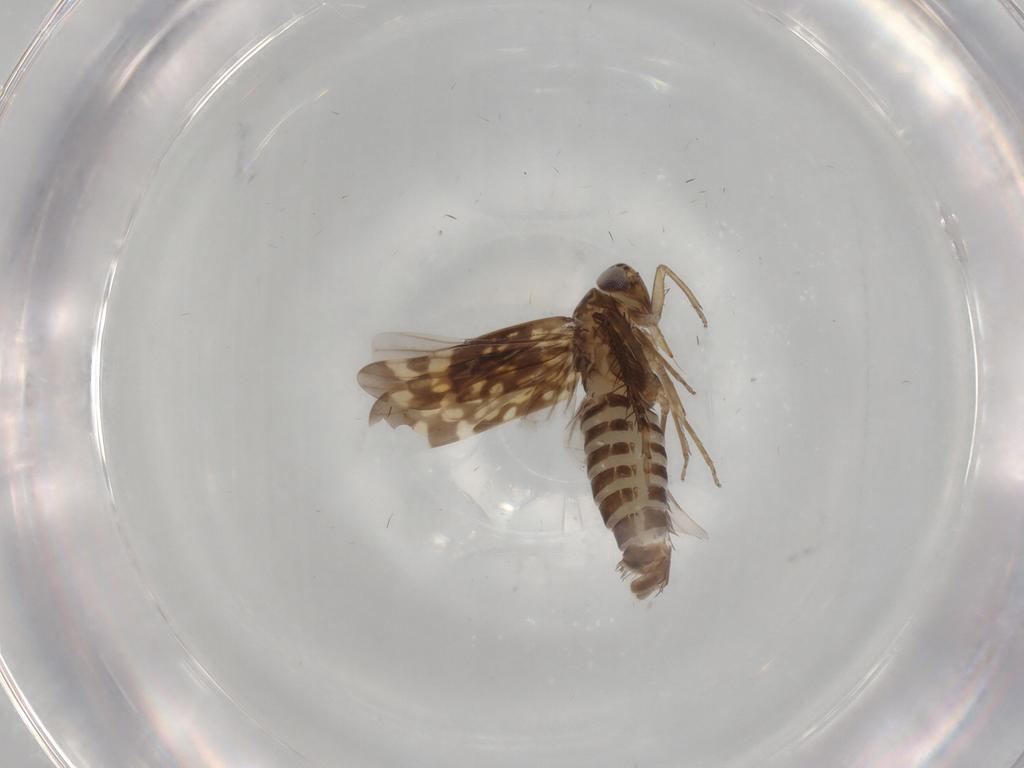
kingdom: Animalia
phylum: Arthropoda
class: Insecta
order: Hemiptera
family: Cicadellidae
